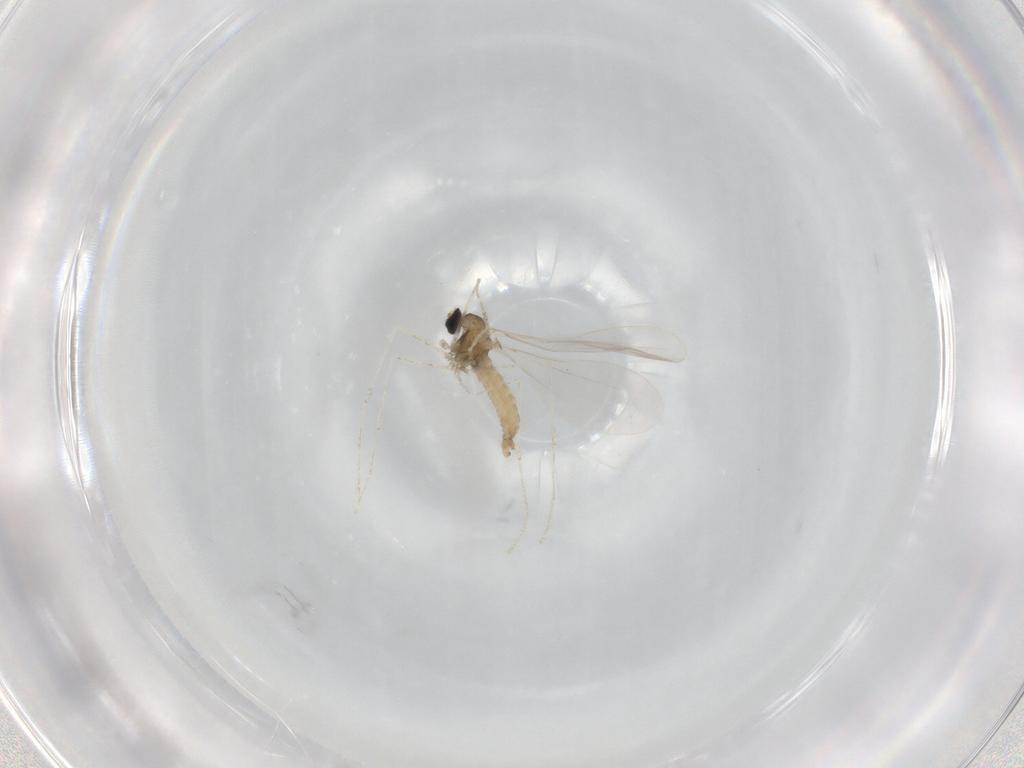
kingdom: Animalia
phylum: Arthropoda
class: Insecta
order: Diptera
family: Cecidomyiidae
